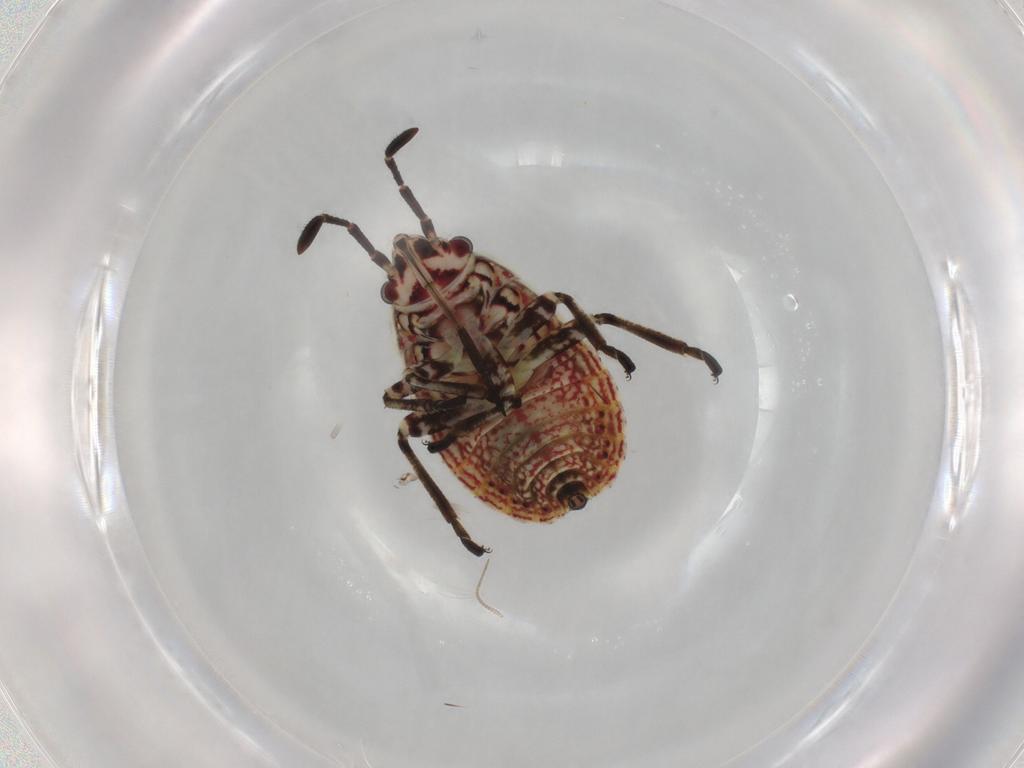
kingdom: Animalia
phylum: Arthropoda
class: Insecta
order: Hemiptera
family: Lygaeidae
